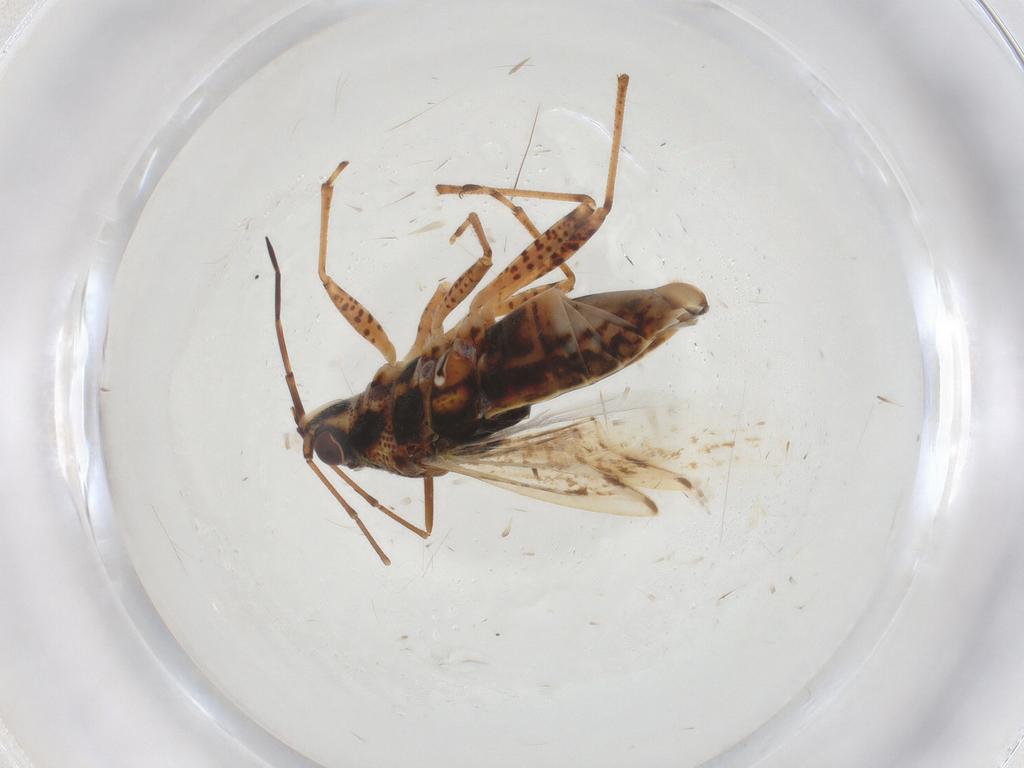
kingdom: Animalia
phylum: Arthropoda
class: Insecta
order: Hemiptera
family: Lygaeidae
